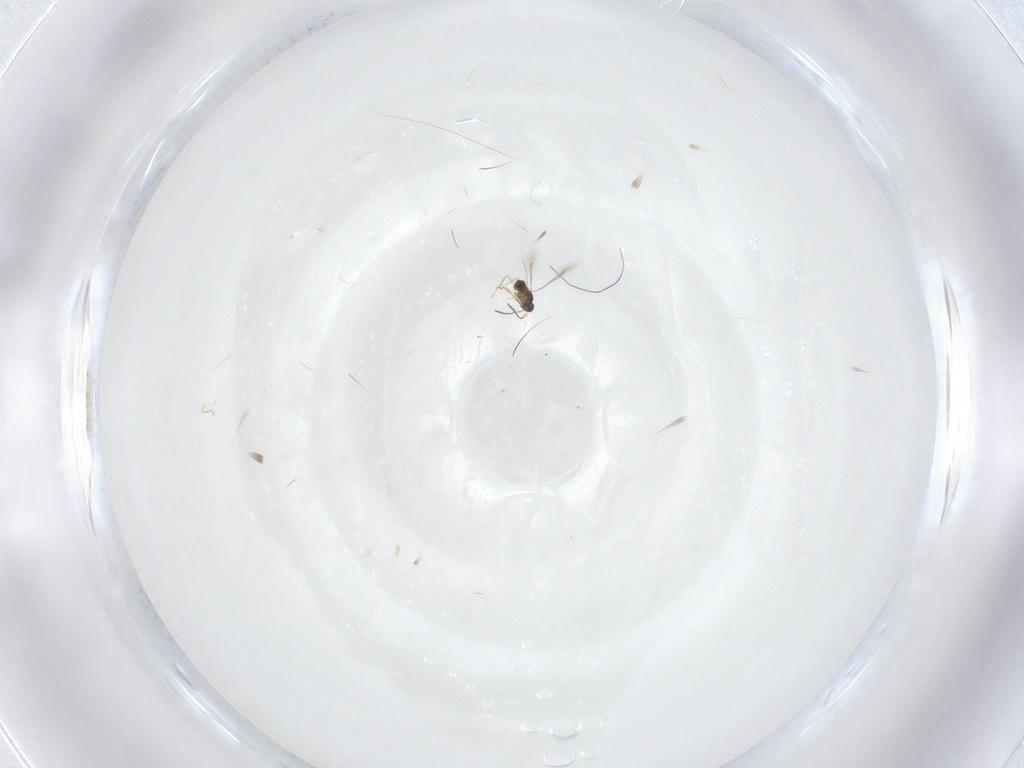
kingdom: Animalia
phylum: Arthropoda
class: Insecta
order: Hymenoptera
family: Mymaridae
